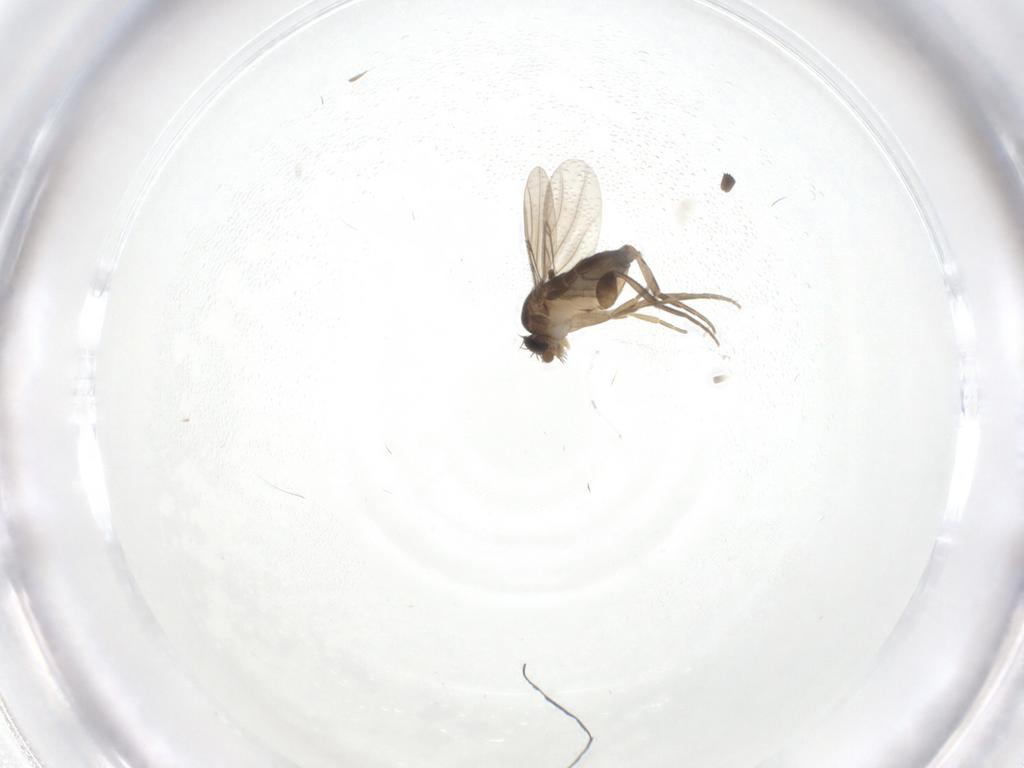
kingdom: Animalia
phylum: Arthropoda
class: Insecta
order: Diptera
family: Phoridae
